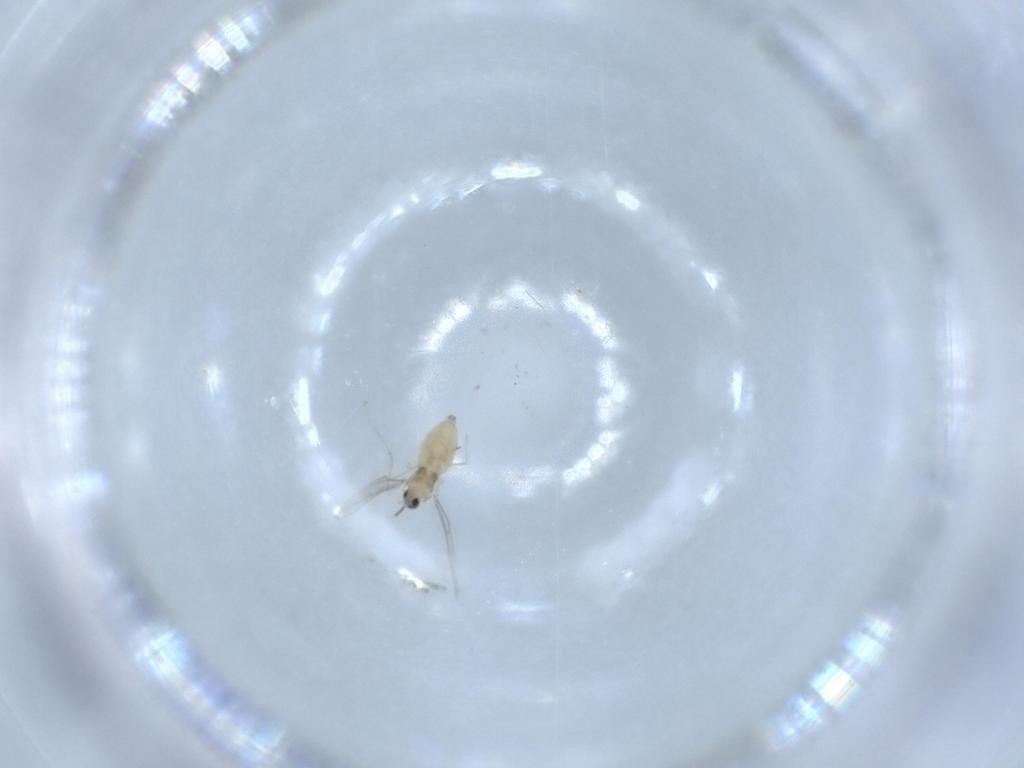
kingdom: Animalia
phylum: Arthropoda
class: Insecta
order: Diptera
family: Cecidomyiidae
